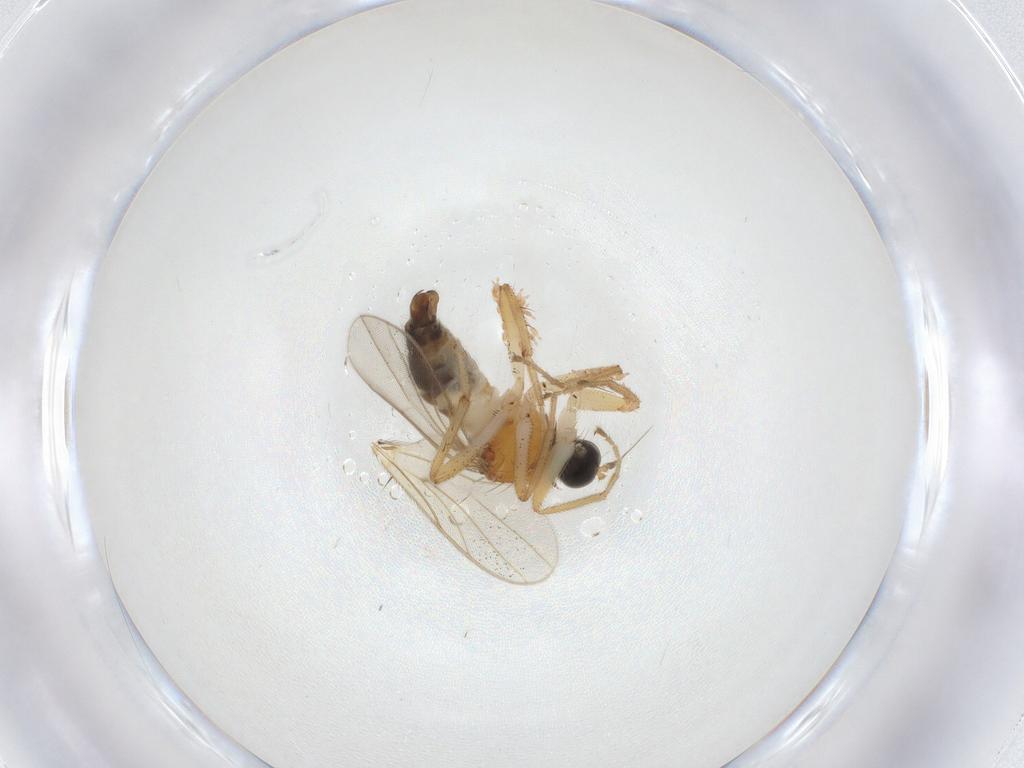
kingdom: Animalia
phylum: Arthropoda
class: Insecta
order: Diptera
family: Hybotidae
